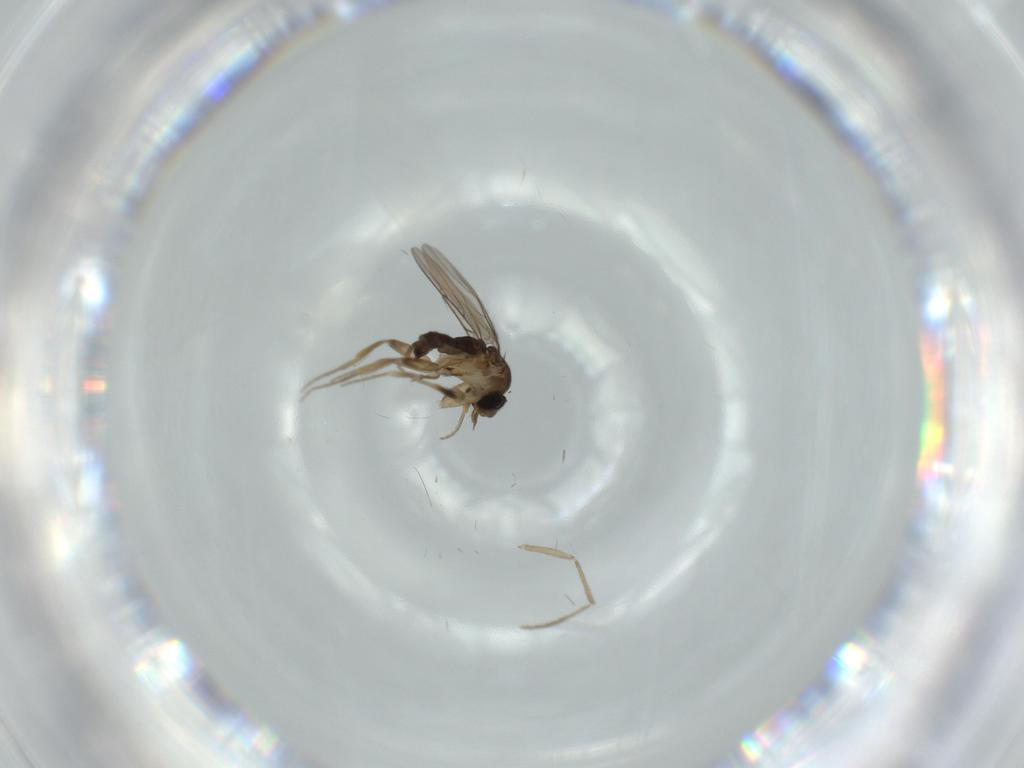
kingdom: Animalia
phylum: Arthropoda
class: Insecta
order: Diptera
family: Phoridae
